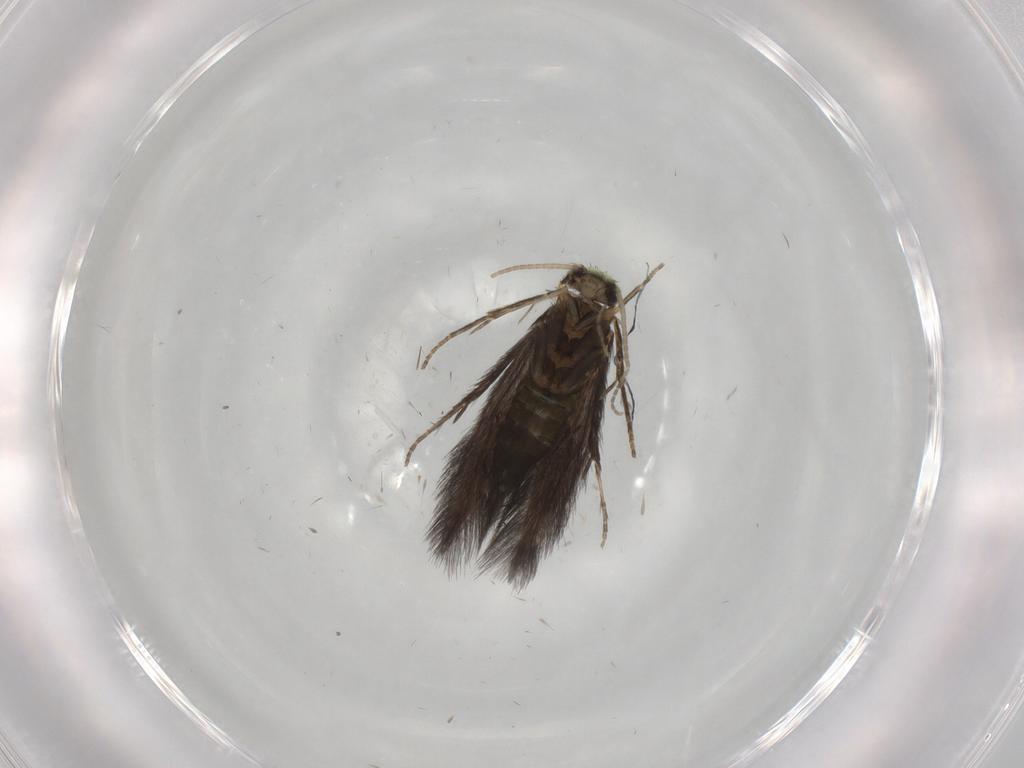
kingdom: Animalia
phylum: Arthropoda
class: Insecta
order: Trichoptera
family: Hydroptilidae
